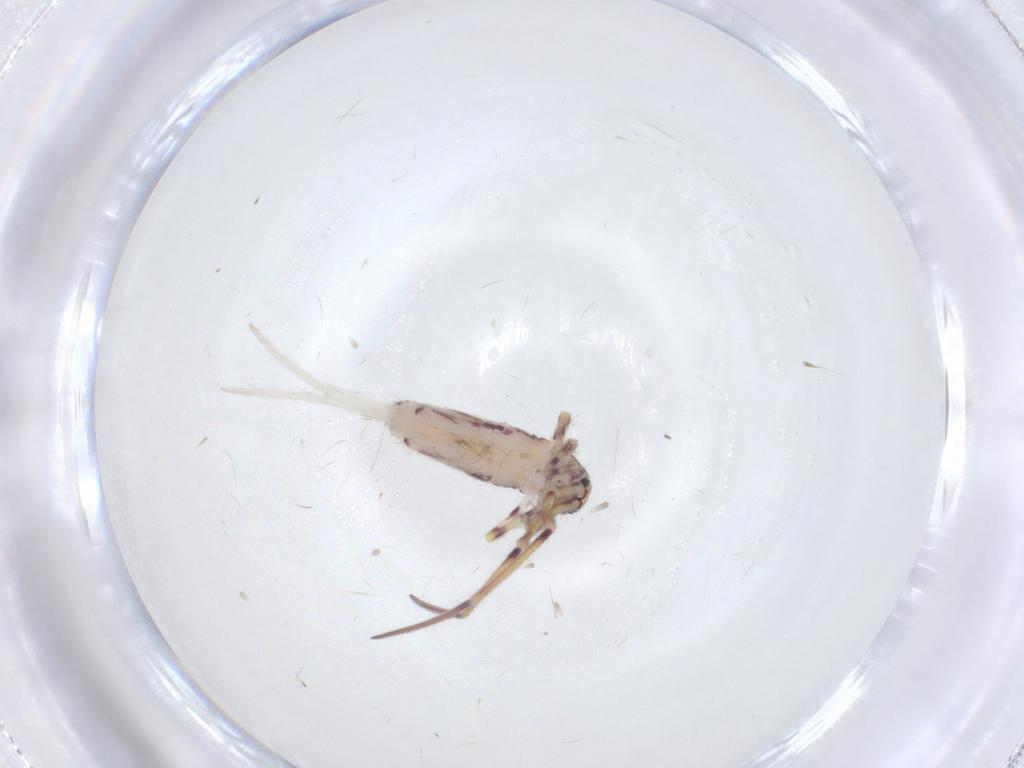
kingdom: Animalia
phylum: Arthropoda
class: Collembola
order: Entomobryomorpha
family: Entomobryidae
